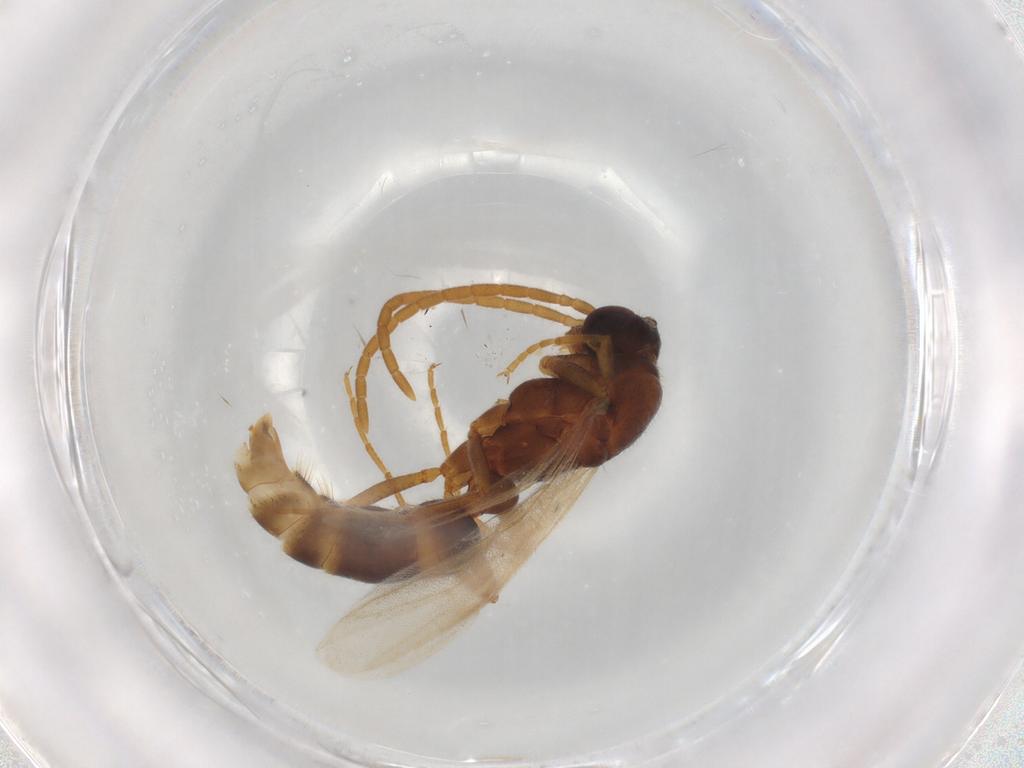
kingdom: Animalia
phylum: Arthropoda
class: Insecta
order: Hymenoptera
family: Formicidae
